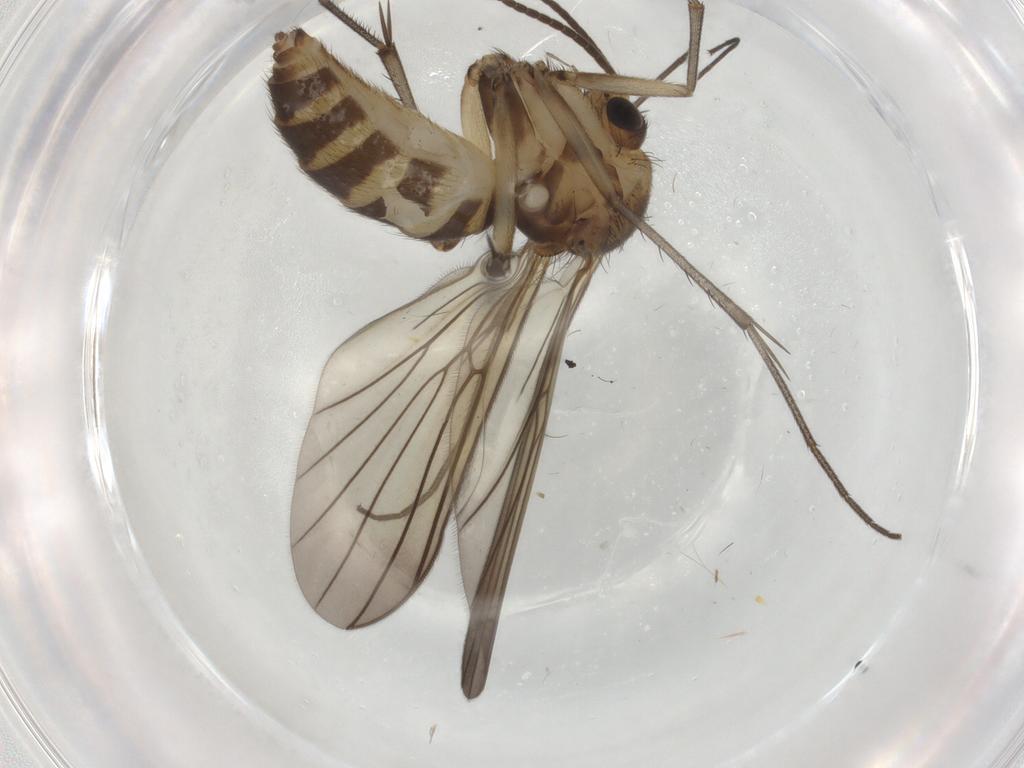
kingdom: Animalia
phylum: Arthropoda
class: Insecta
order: Diptera
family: Mycetophilidae
